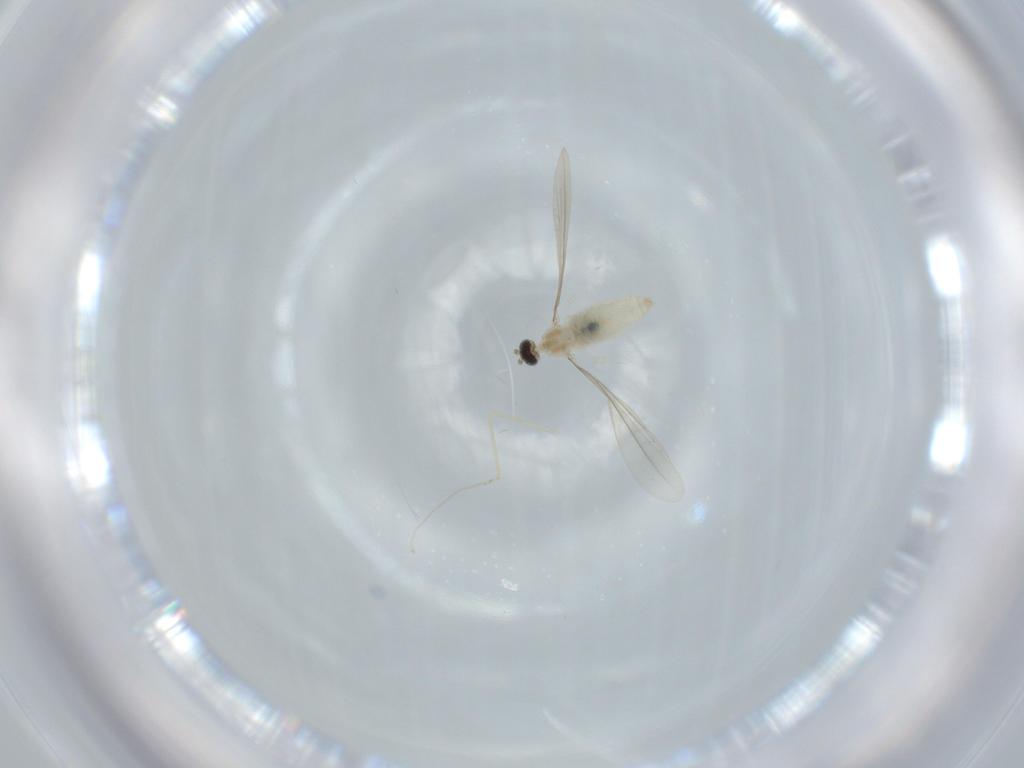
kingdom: Animalia
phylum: Arthropoda
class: Insecta
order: Diptera
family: Cecidomyiidae
